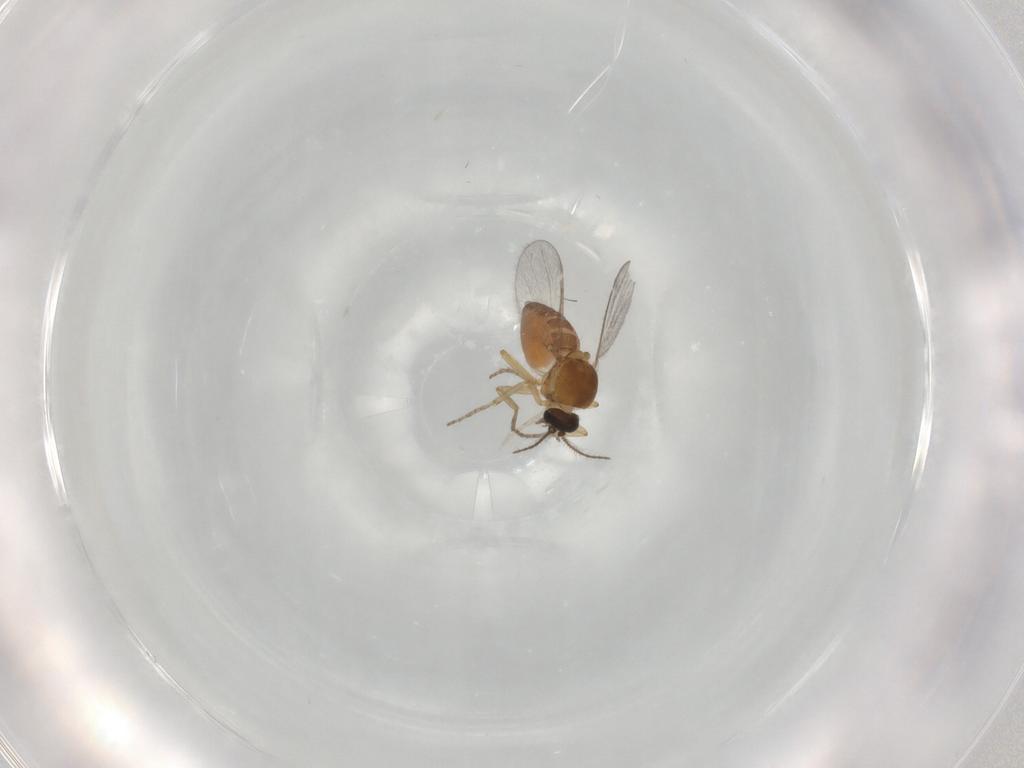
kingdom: Animalia
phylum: Arthropoda
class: Insecta
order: Diptera
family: Ceratopogonidae
